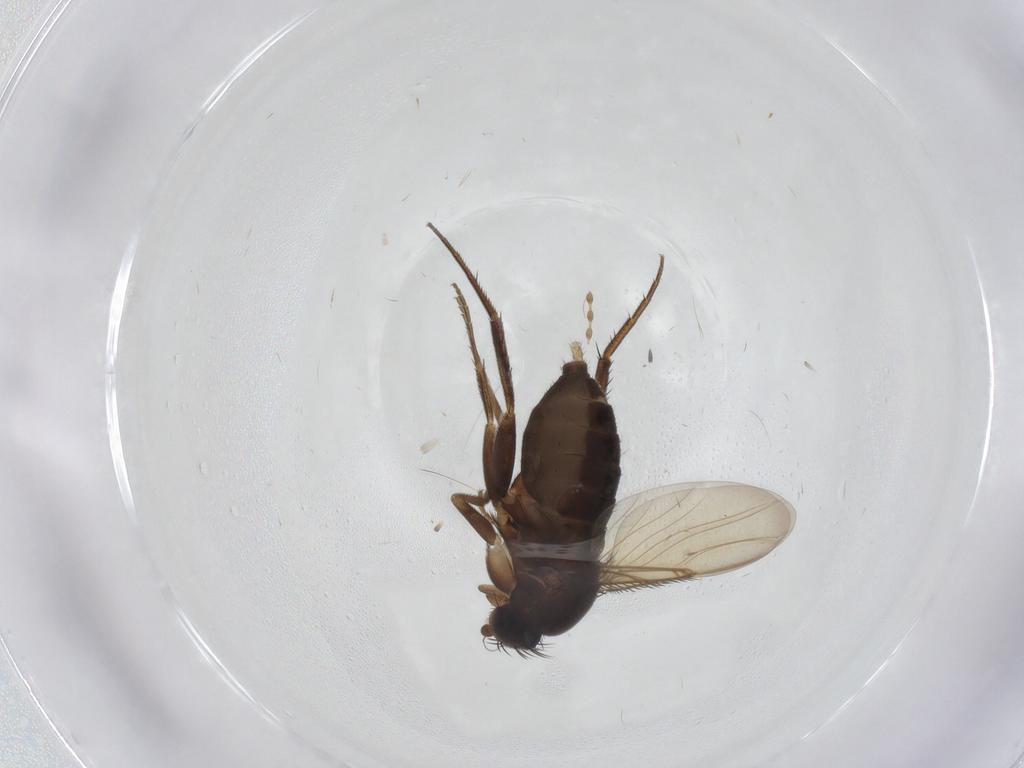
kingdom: Animalia
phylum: Arthropoda
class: Insecta
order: Diptera
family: Phoridae
